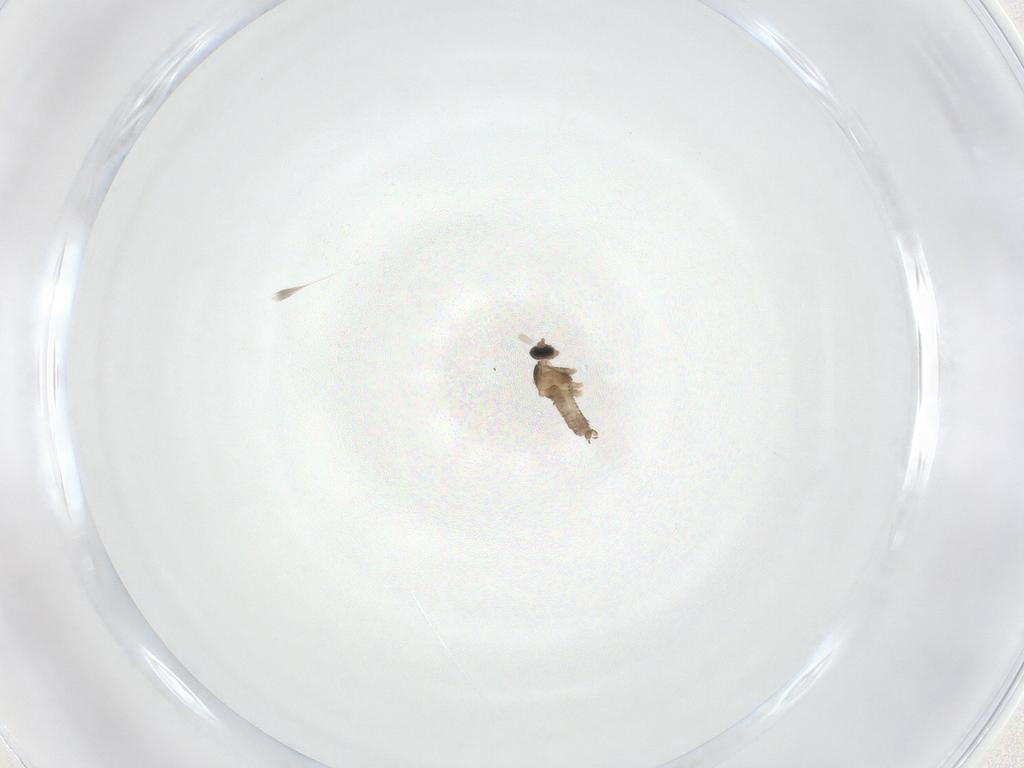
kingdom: Animalia
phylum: Arthropoda
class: Insecta
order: Diptera
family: Cecidomyiidae
